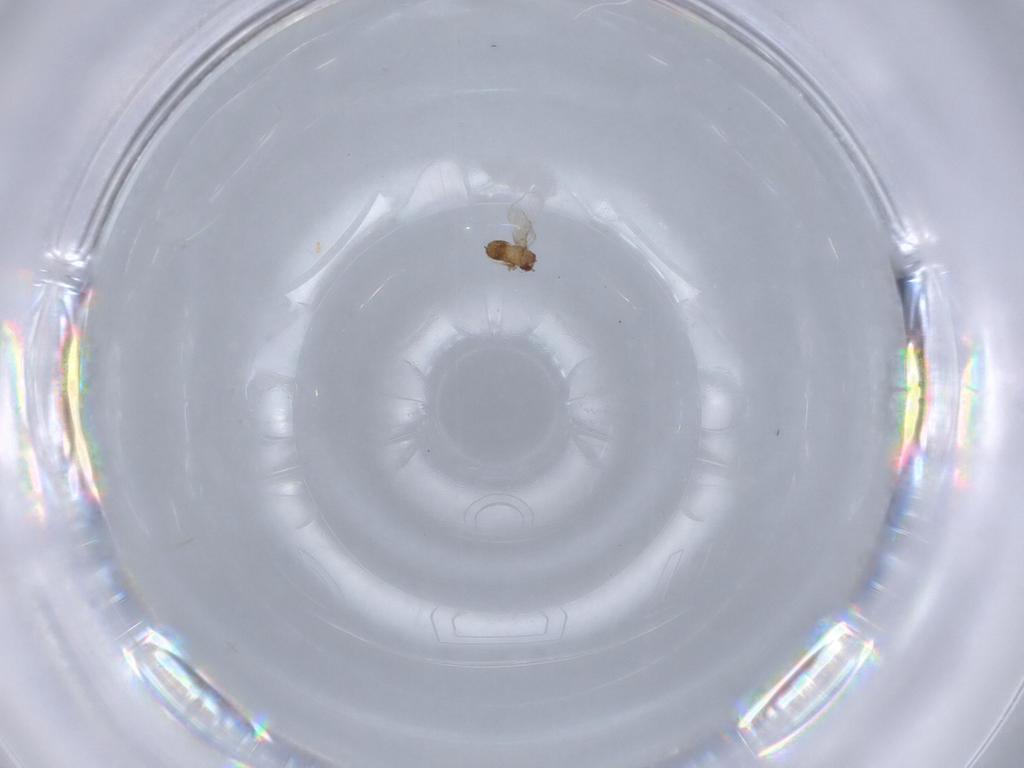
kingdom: Animalia
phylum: Arthropoda
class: Insecta
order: Hymenoptera
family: Trichogrammatidae
